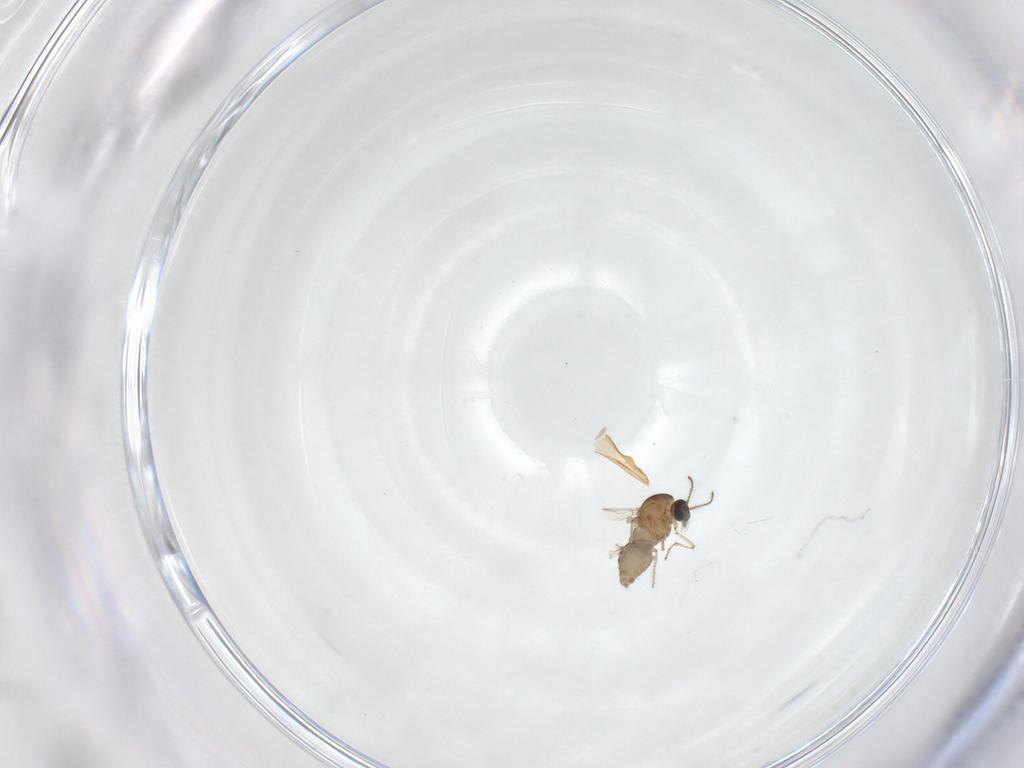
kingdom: Animalia
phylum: Arthropoda
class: Insecta
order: Diptera
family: Ceratopogonidae
